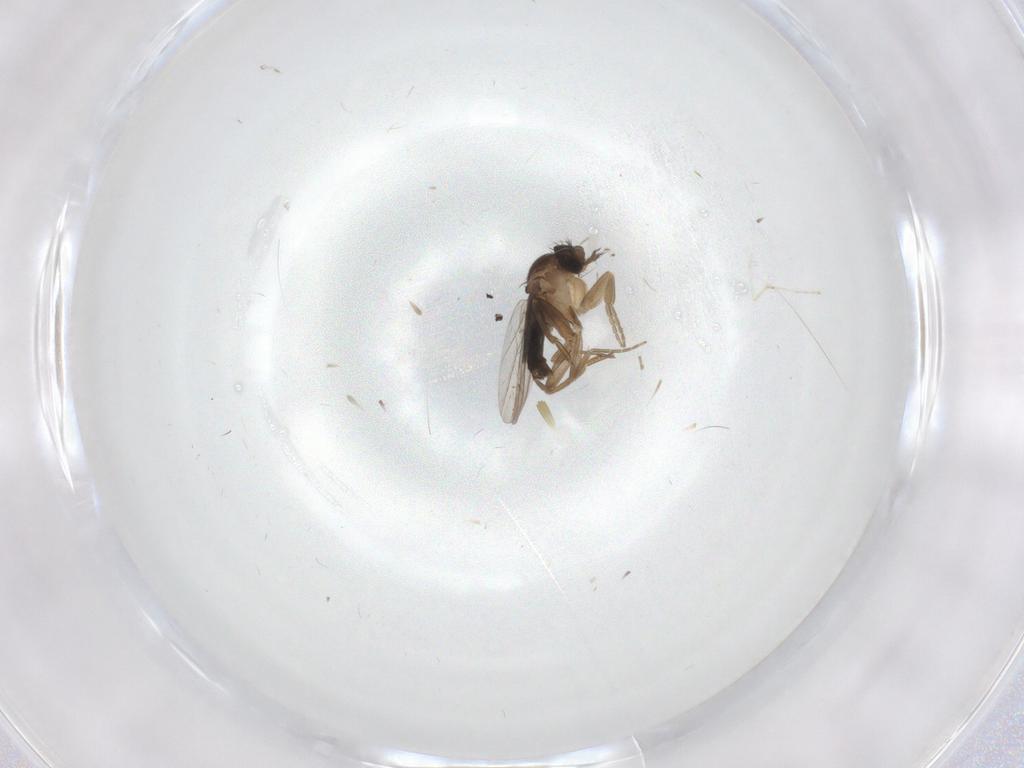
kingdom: Animalia
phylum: Arthropoda
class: Insecta
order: Diptera
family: Phoridae
